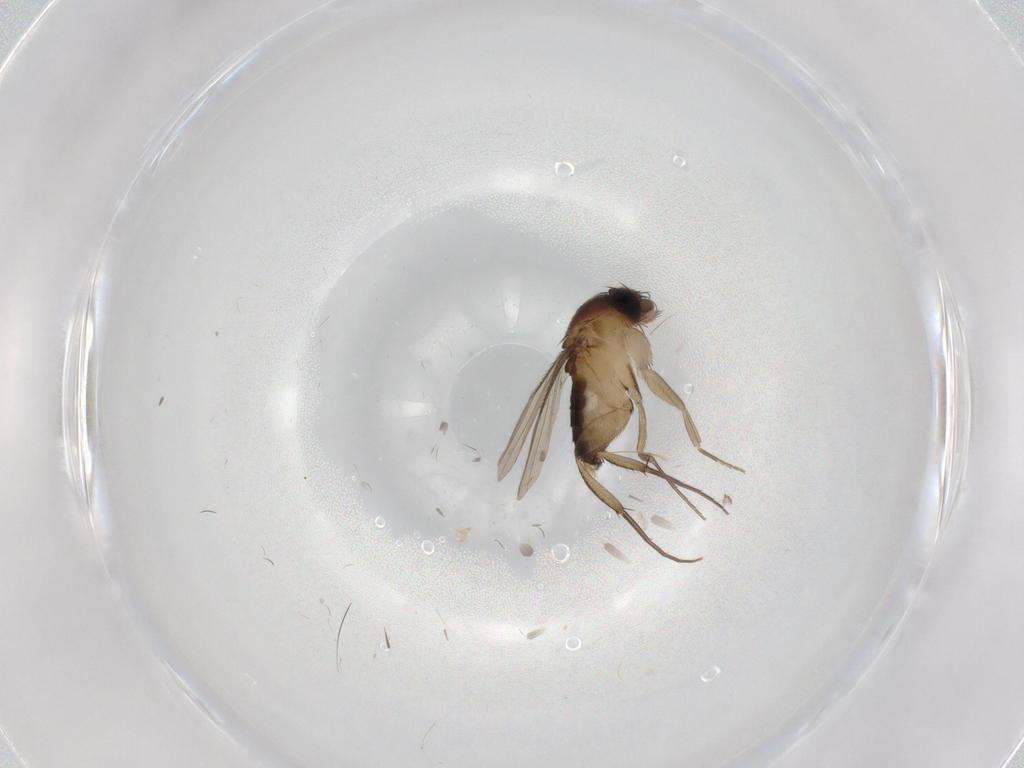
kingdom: Animalia
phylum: Arthropoda
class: Insecta
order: Diptera
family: Phoridae
